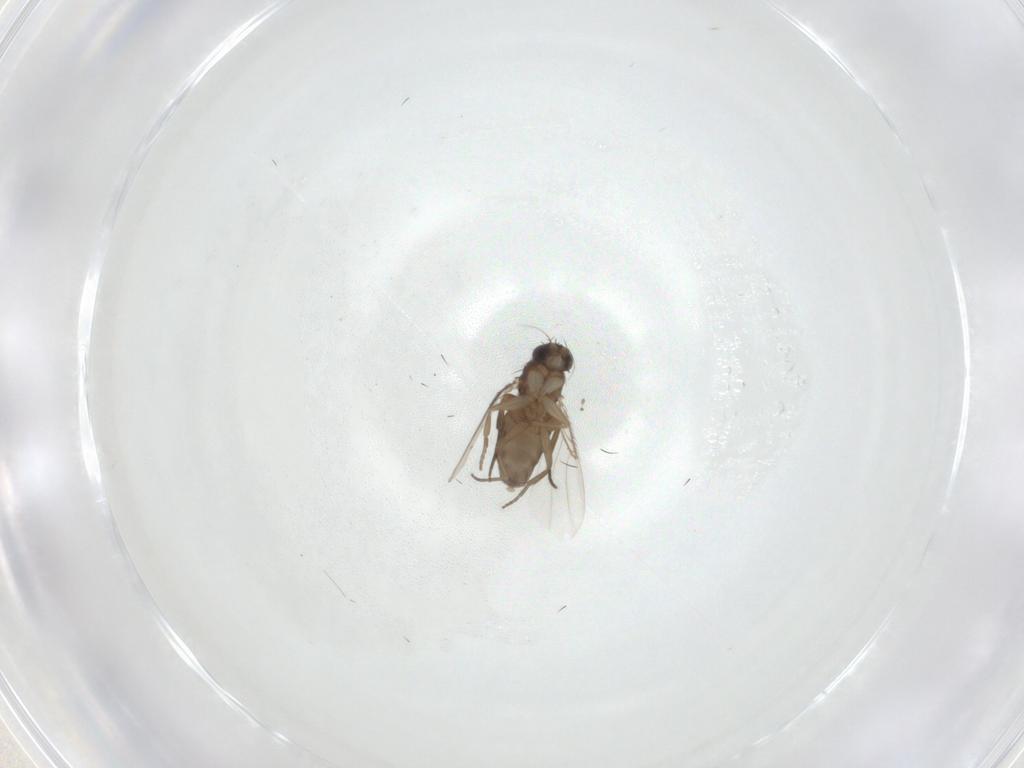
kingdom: Animalia
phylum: Arthropoda
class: Insecta
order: Diptera
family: Phoridae
